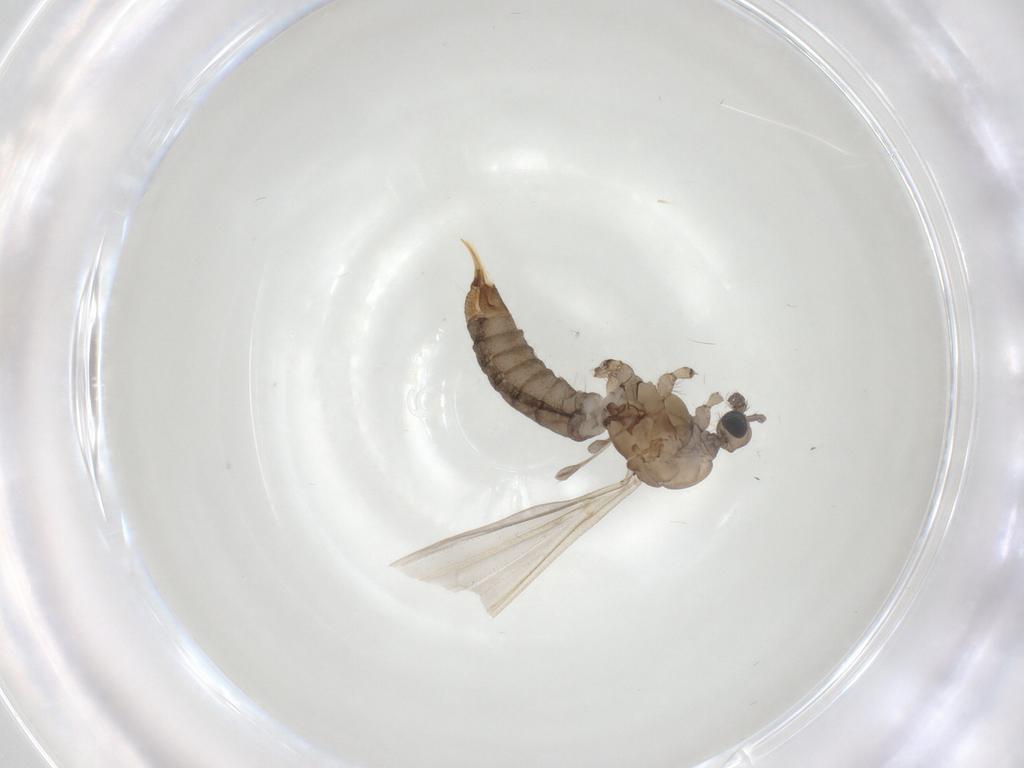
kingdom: Animalia
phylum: Arthropoda
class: Insecta
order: Diptera
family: Limoniidae
